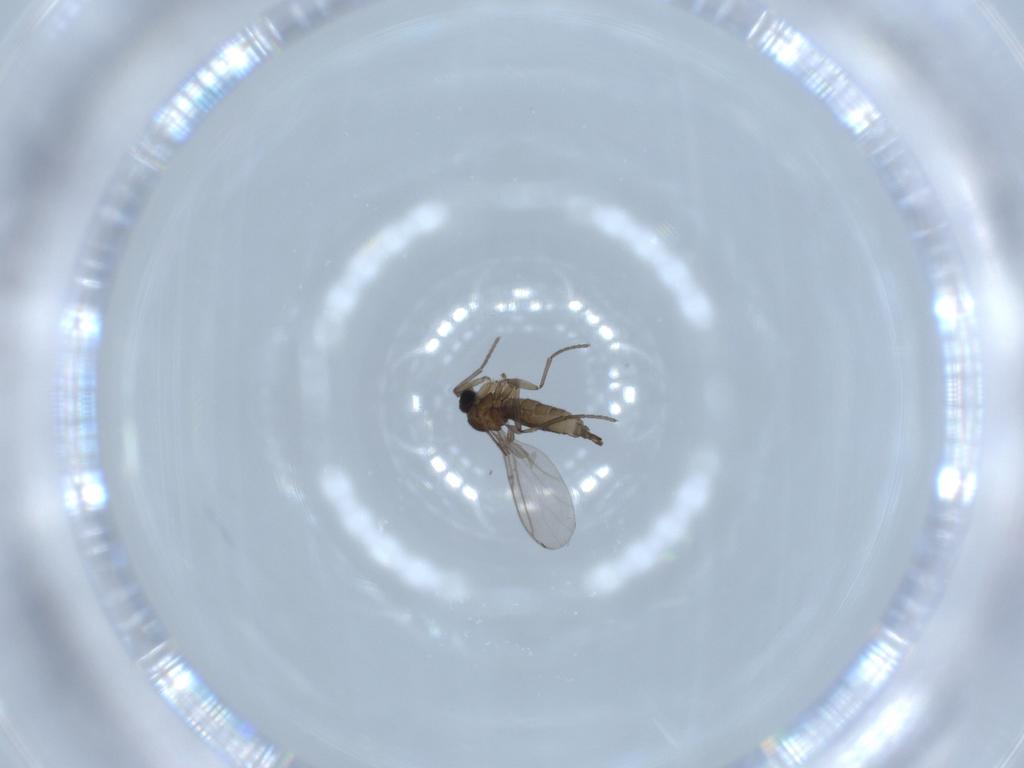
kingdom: Animalia
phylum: Arthropoda
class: Insecta
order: Diptera
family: Cecidomyiidae
